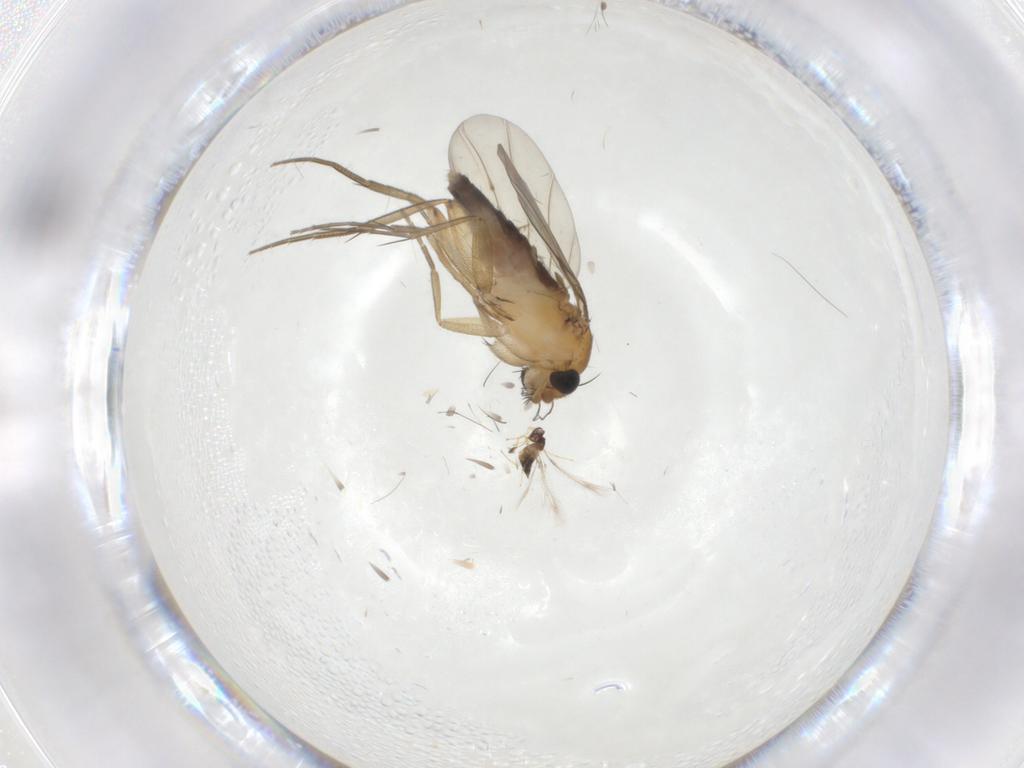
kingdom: Animalia
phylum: Arthropoda
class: Insecta
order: Diptera
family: Phoridae
